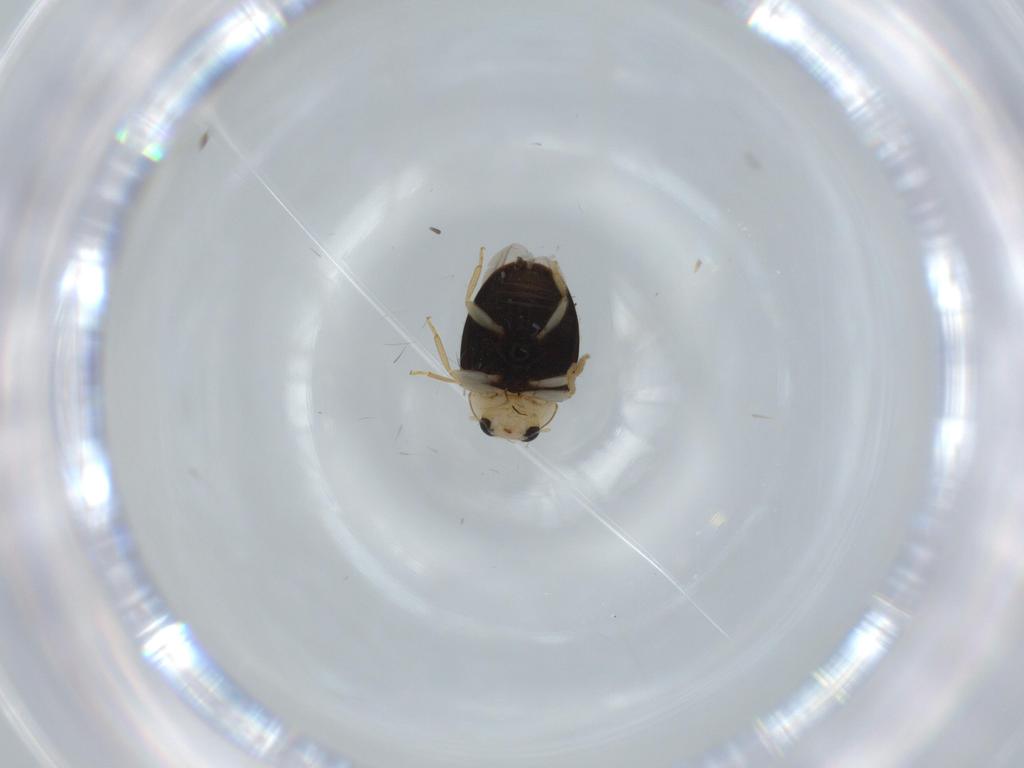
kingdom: Animalia
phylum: Arthropoda
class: Insecta
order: Coleoptera
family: Coccinellidae
